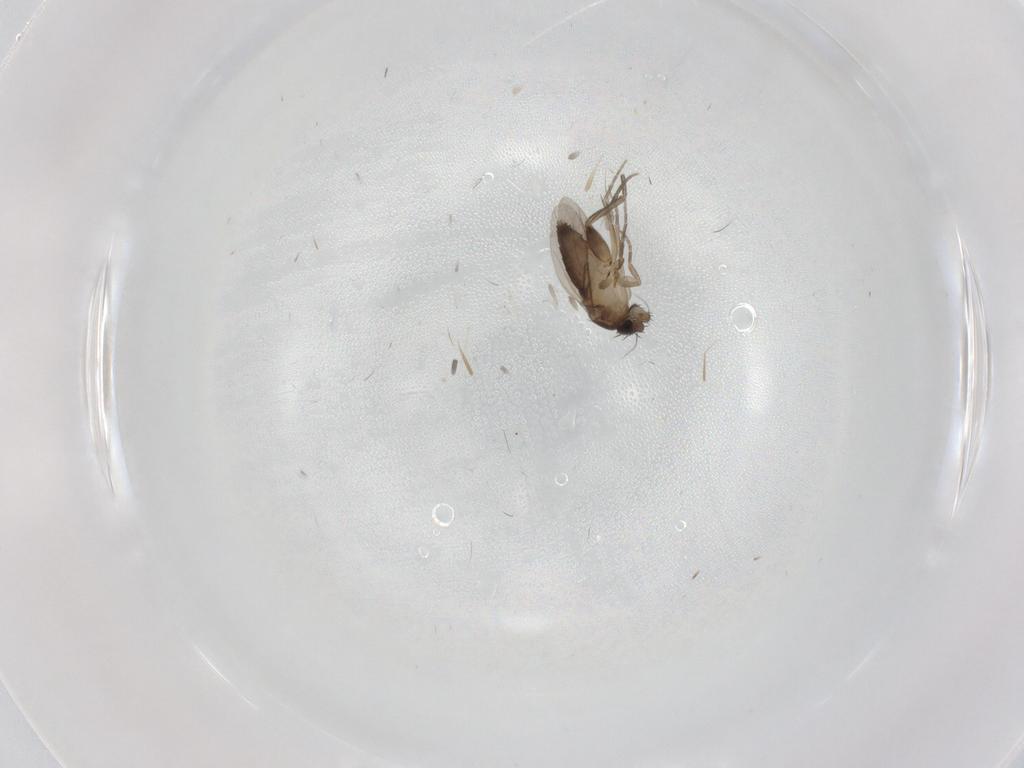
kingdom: Animalia
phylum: Arthropoda
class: Insecta
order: Diptera
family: Phoridae
